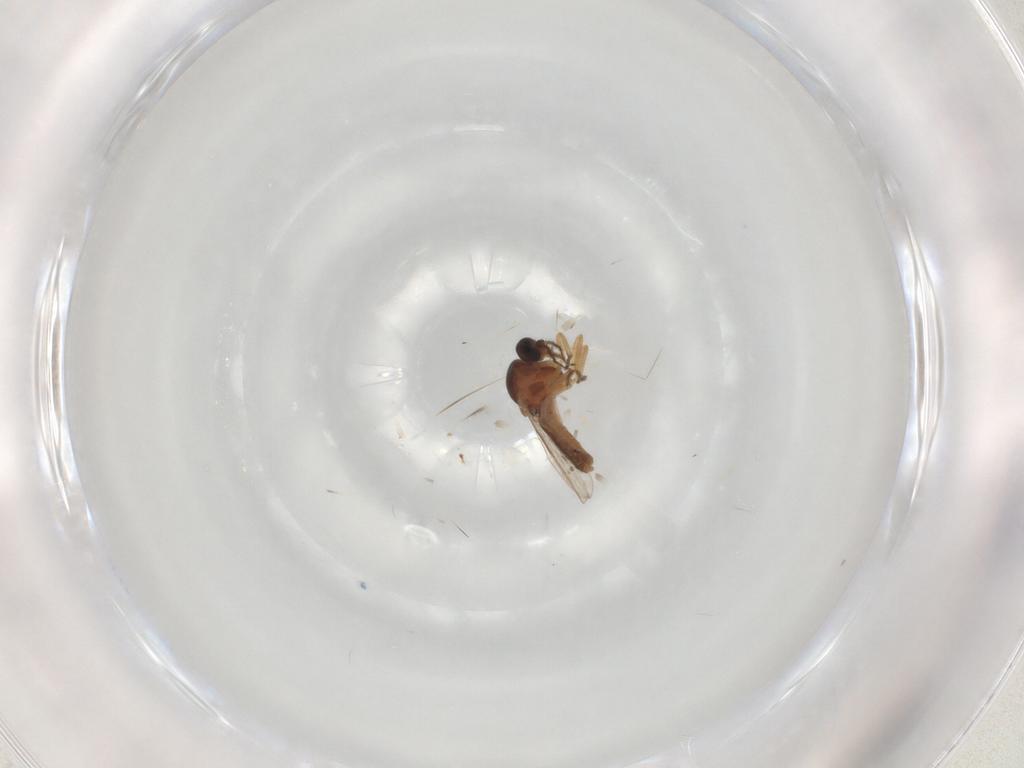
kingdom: Animalia
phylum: Arthropoda
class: Insecta
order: Diptera
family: Ceratopogonidae
